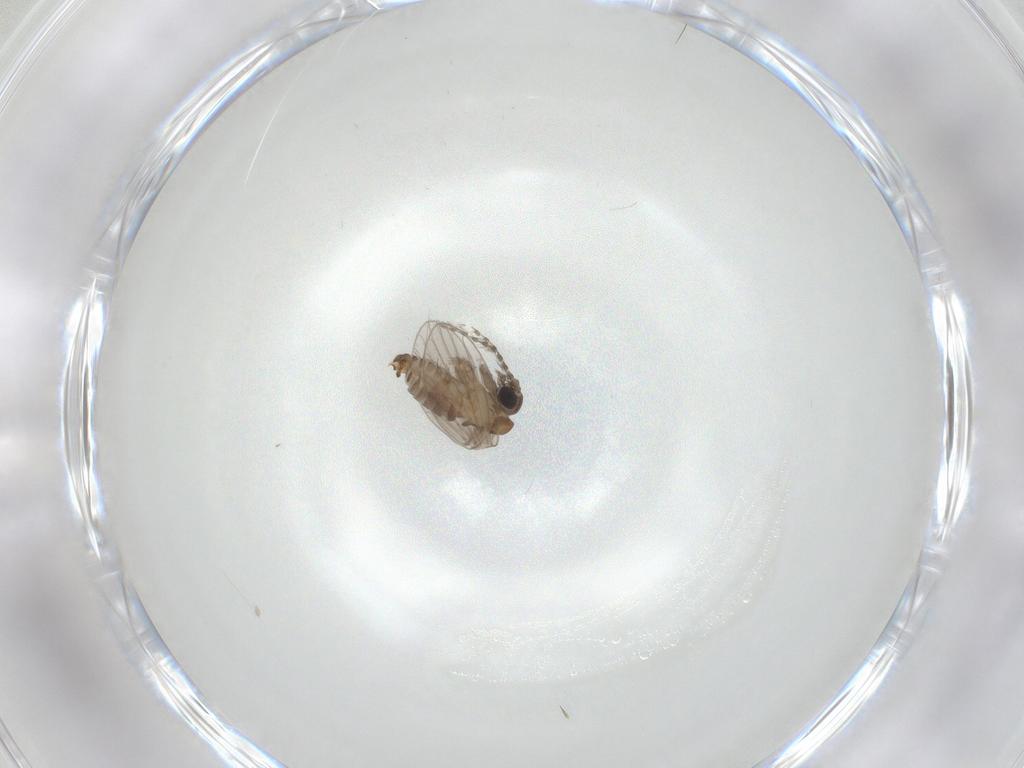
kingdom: Animalia
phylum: Arthropoda
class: Insecta
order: Diptera
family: Psychodidae
